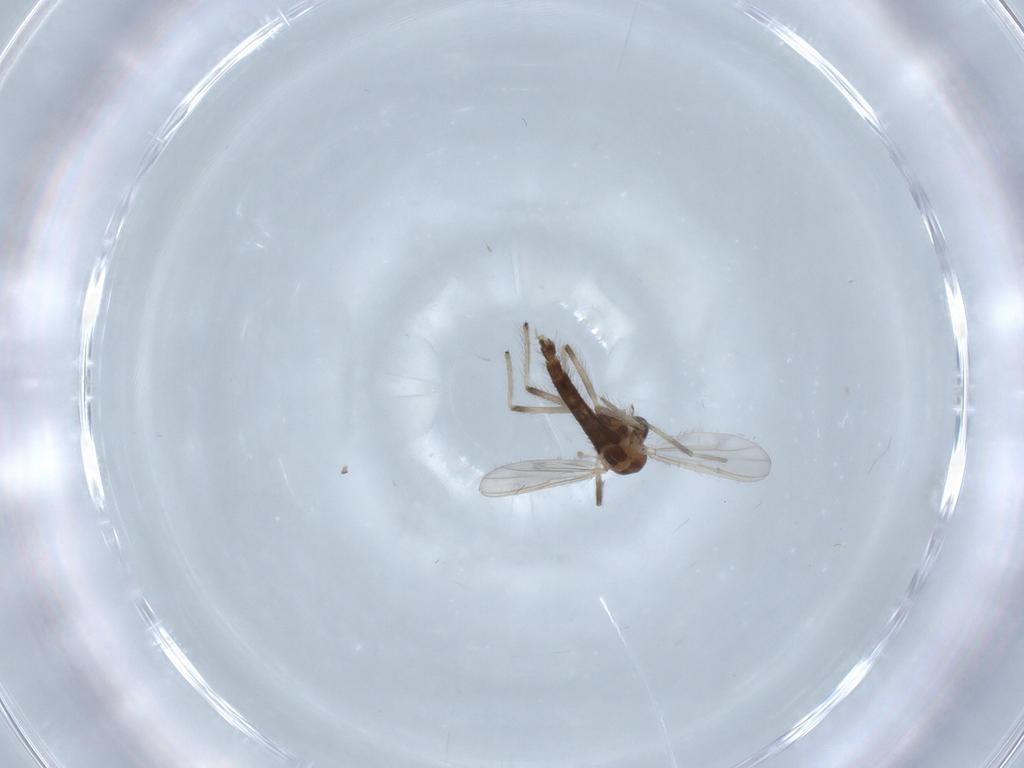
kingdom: Animalia
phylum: Arthropoda
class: Insecta
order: Diptera
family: Chironomidae
